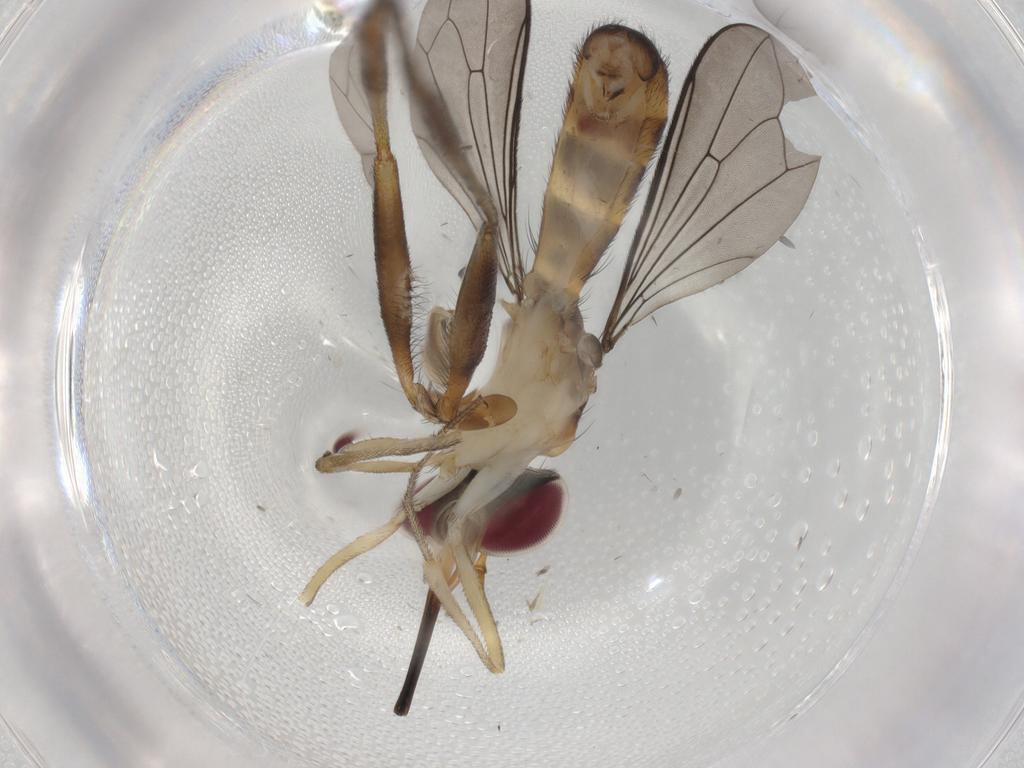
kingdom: Animalia
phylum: Arthropoda
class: Insecta
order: Diptera
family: Conopidae
